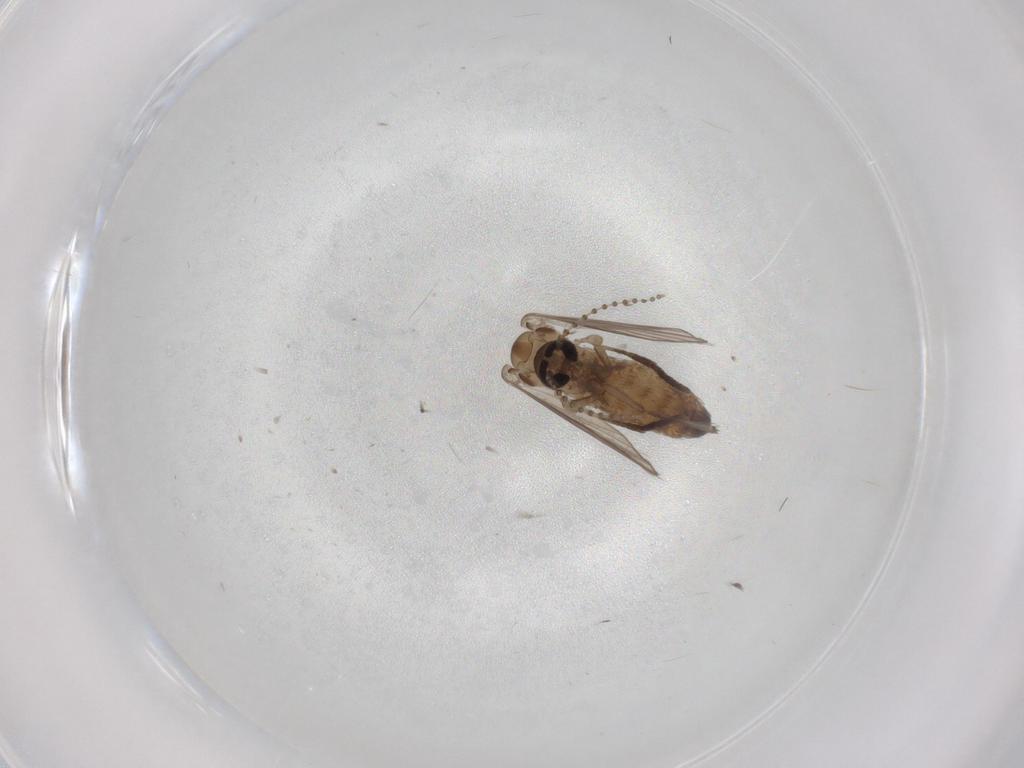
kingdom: Animalia
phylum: Arthropoda
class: Insecta
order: Diptera
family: Psychodidae
